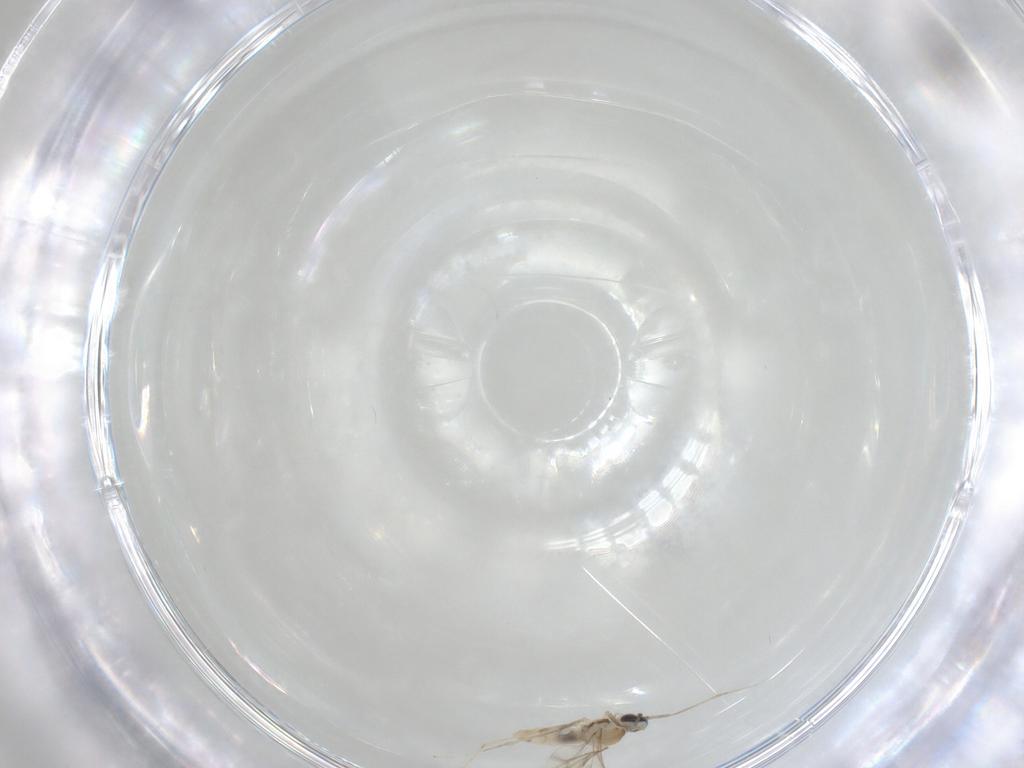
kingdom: Animalia
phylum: Arthropoda
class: Insecta
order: Diptera
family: Cecidomyiidae
